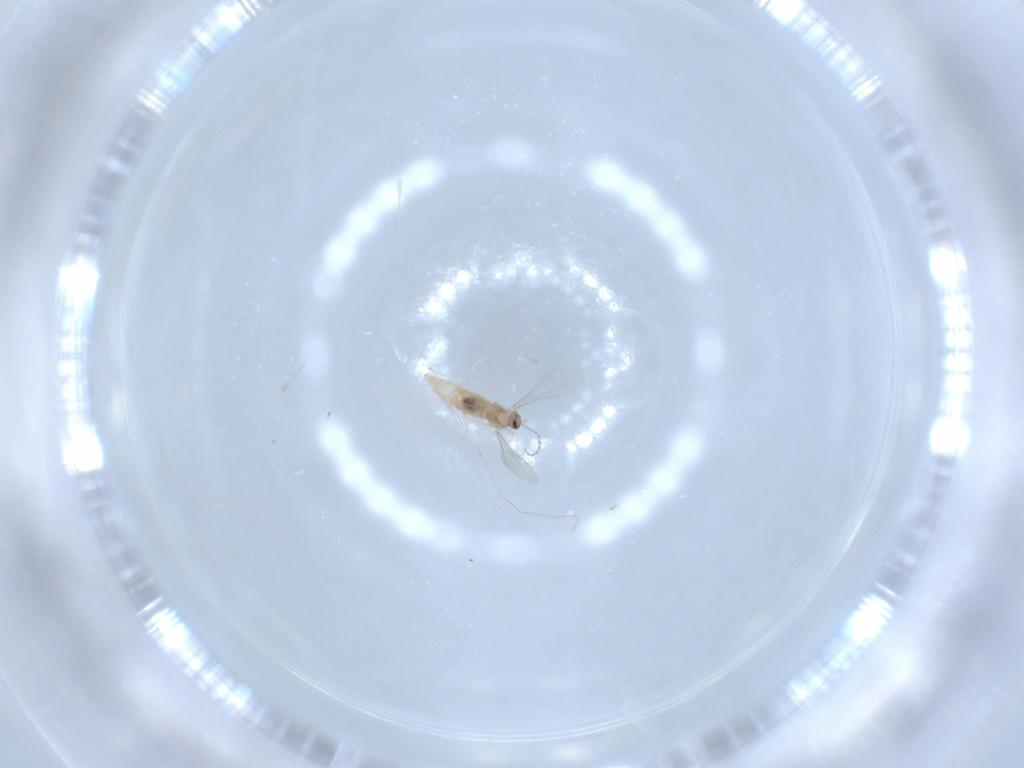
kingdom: Animalia
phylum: Arthropoda
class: Insecta
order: Diptera
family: Cecidomyiidae
